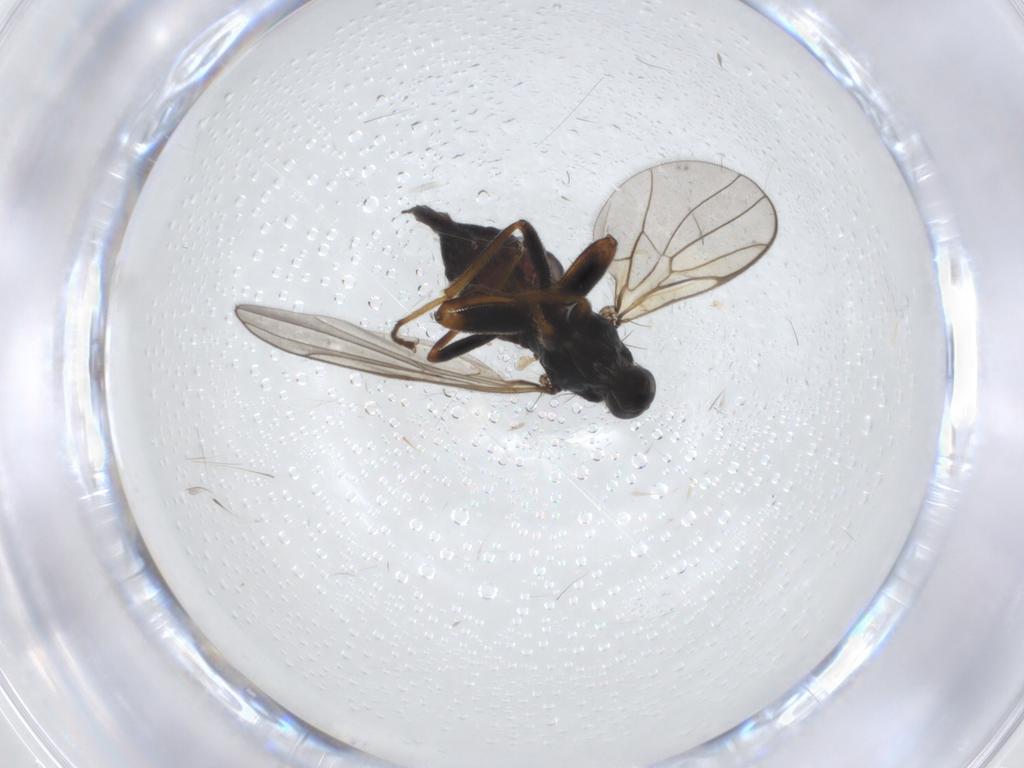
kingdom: Animalia
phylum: Arthropoda
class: Insecta
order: Diptera
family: Hybotidae
